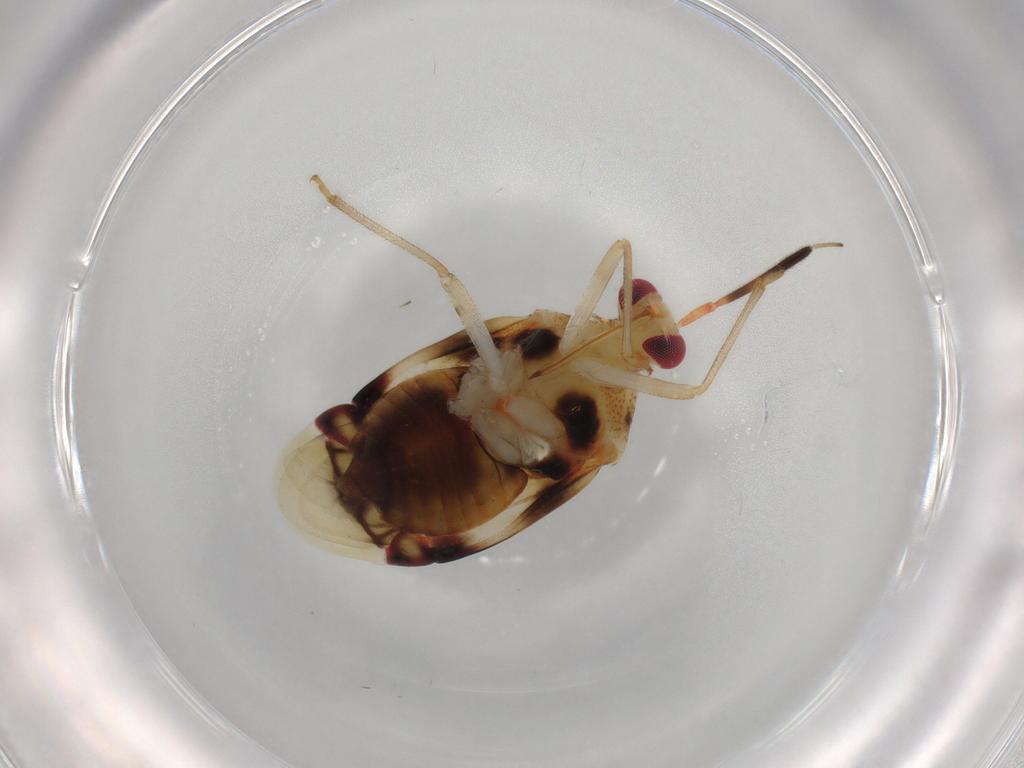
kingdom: Animalia
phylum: Arthropoda
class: Insecta
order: Hemiptera
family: Miridae
